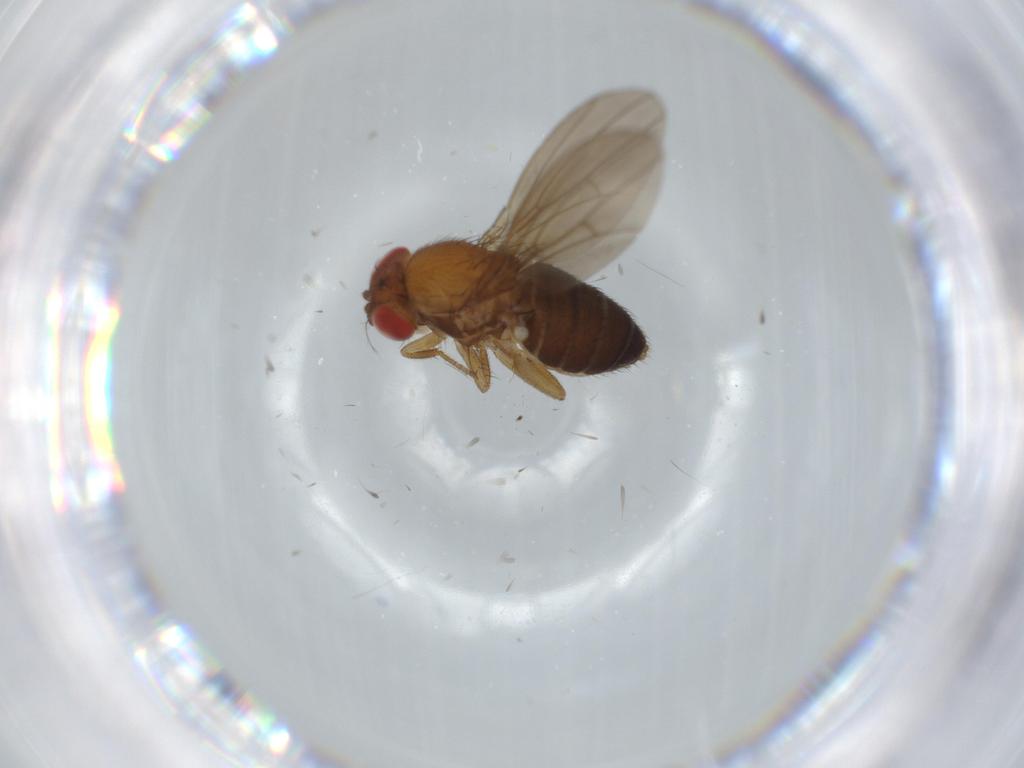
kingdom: Animalia
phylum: Arthropoda
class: Insecta
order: Diptera
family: Drosophilidae
